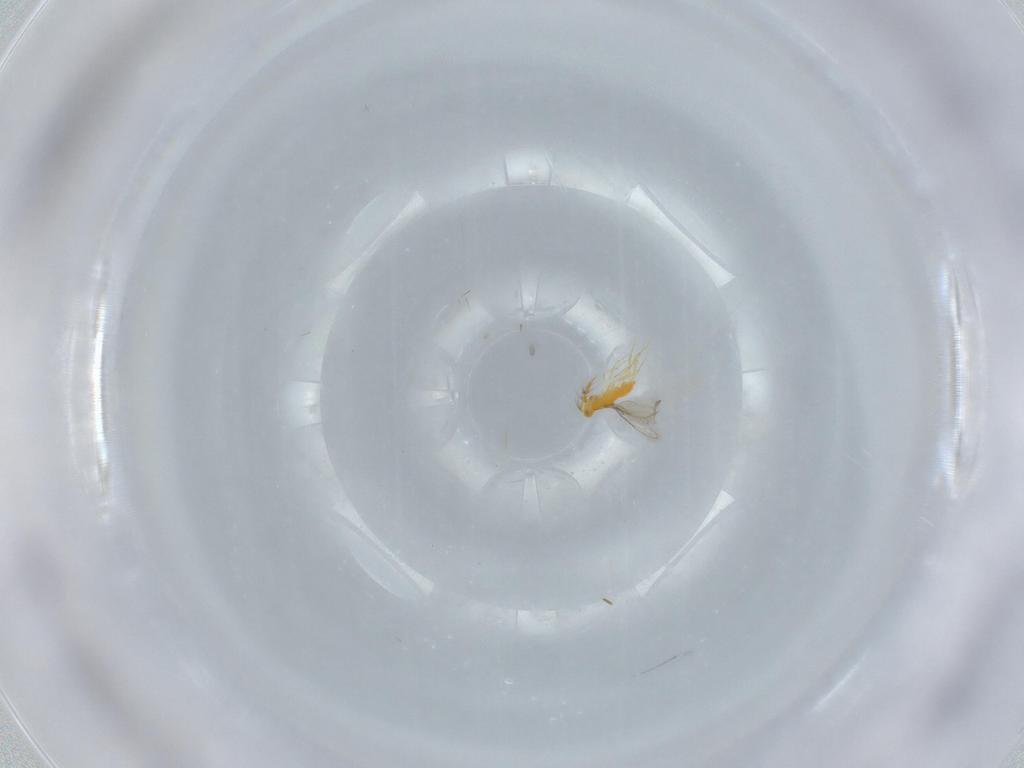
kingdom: Animalia
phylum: Arthropoda
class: Insecta
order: Hymenoptera
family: Aphelinidae
